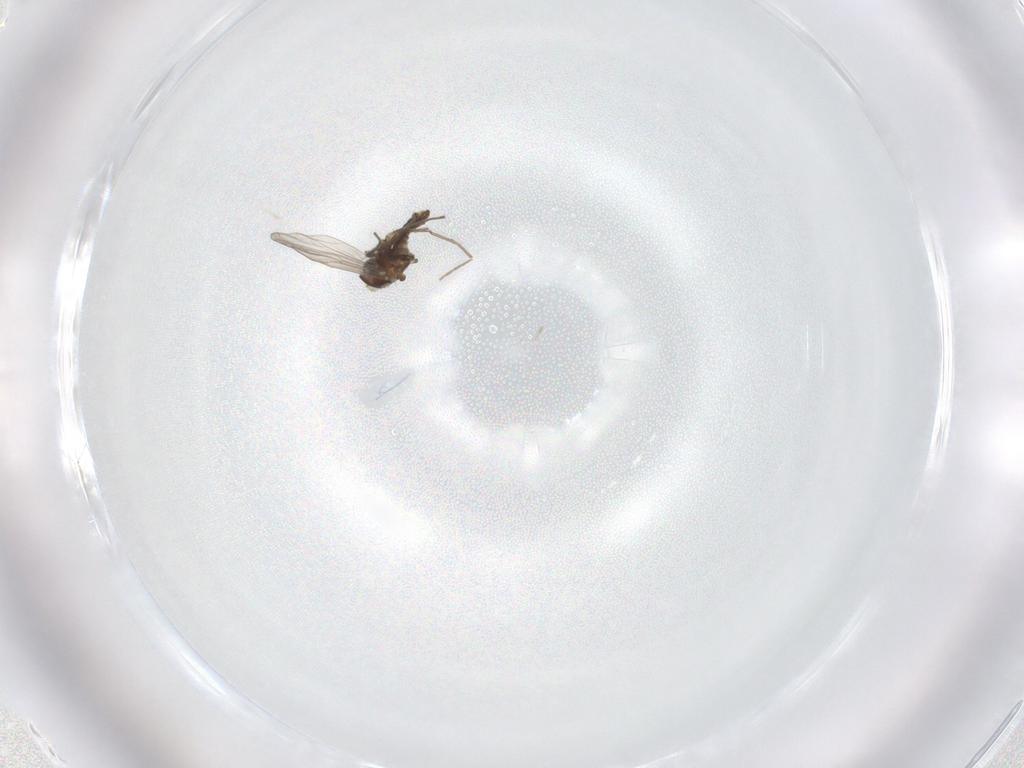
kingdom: Animalia
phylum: Arthropoda
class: Insecta
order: Diptera
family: Chironomidae
